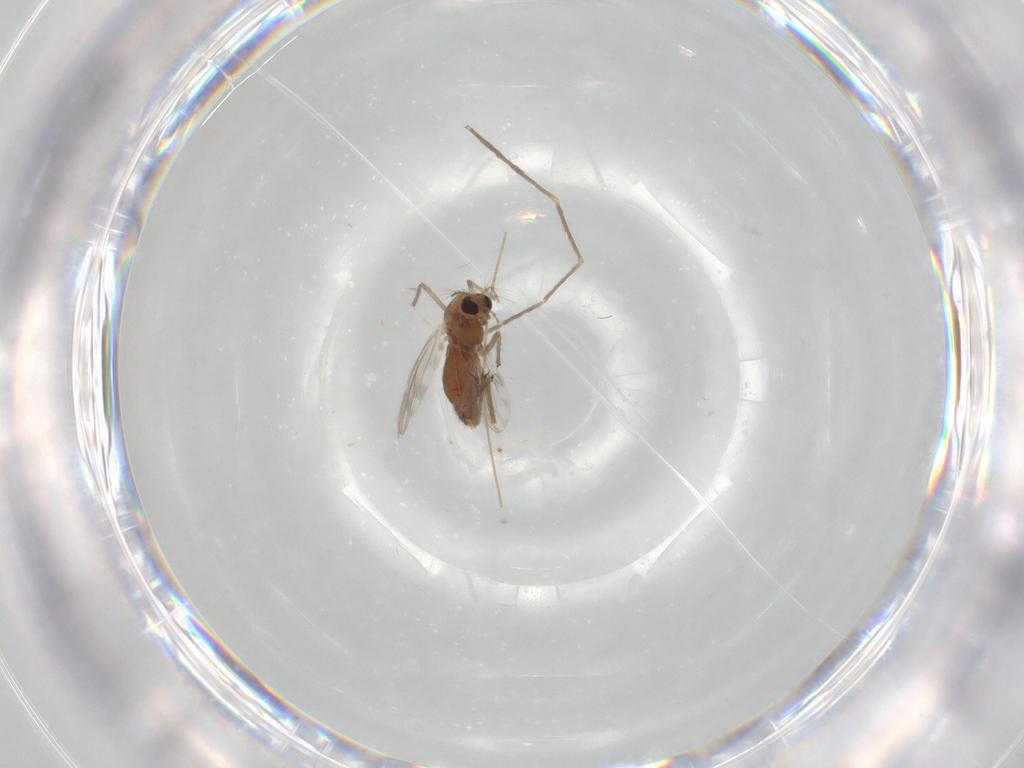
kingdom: Animalia
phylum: Arthropoda
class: Insecta
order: Diptera
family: Chironomidae
